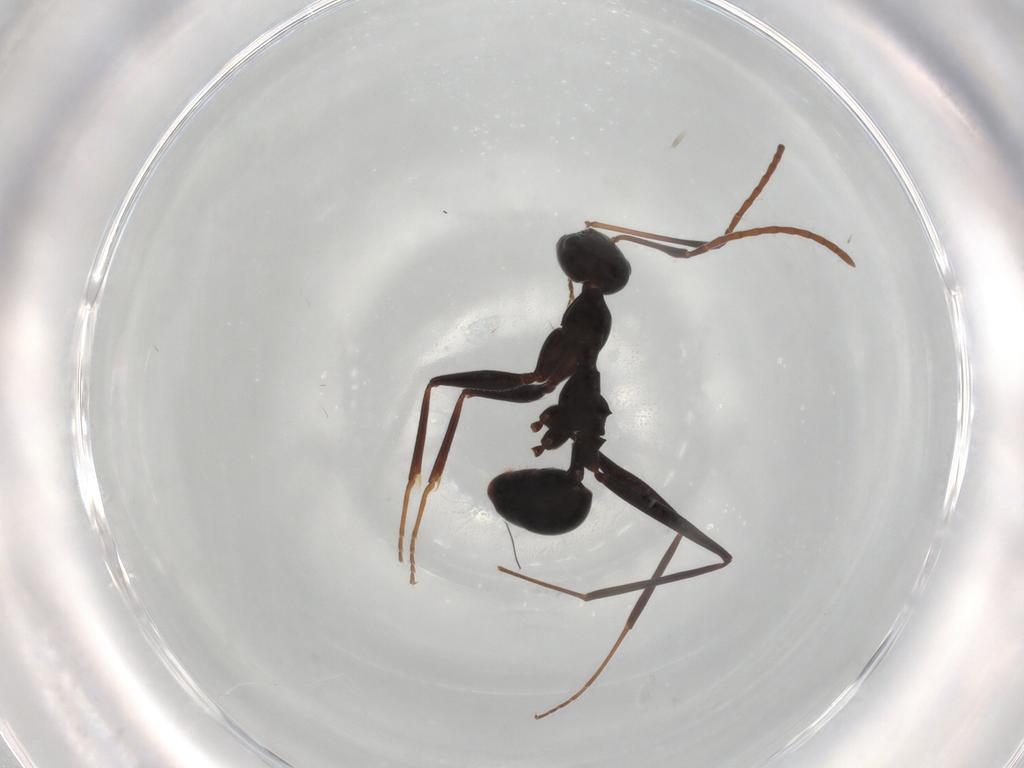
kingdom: Animalia
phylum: Arthropoda
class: Insecta
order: Hymenoptera
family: Formicidae
